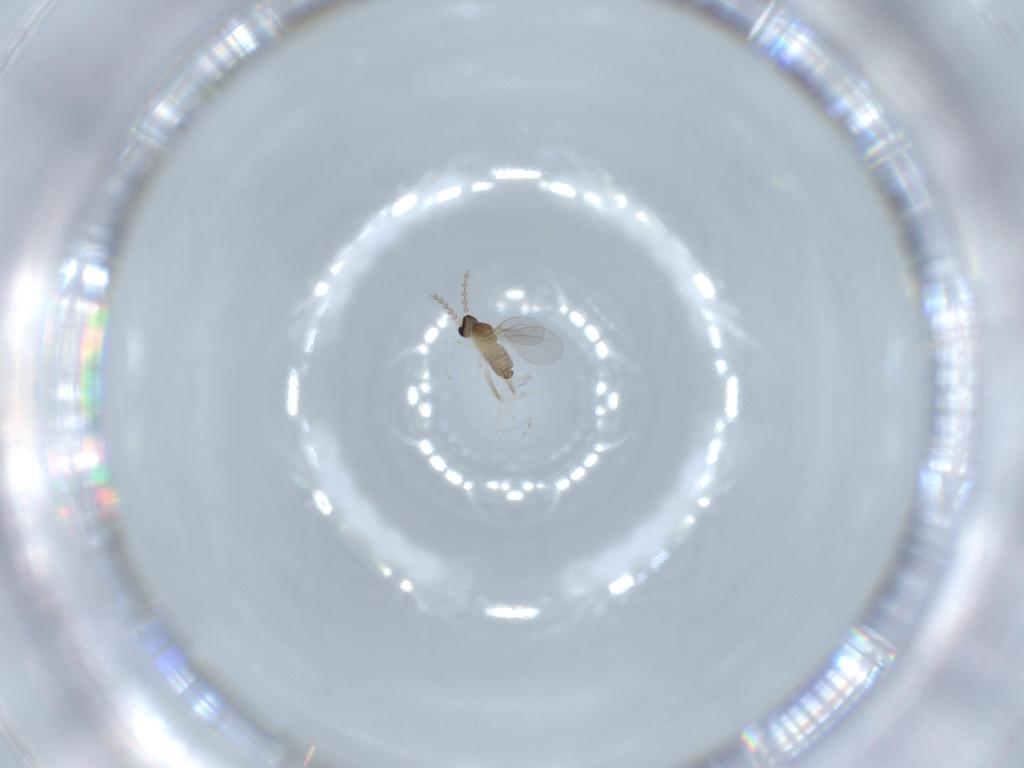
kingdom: Animalia
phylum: Arthropoda
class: Insecta
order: Diptera
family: Cecidomyiidae
